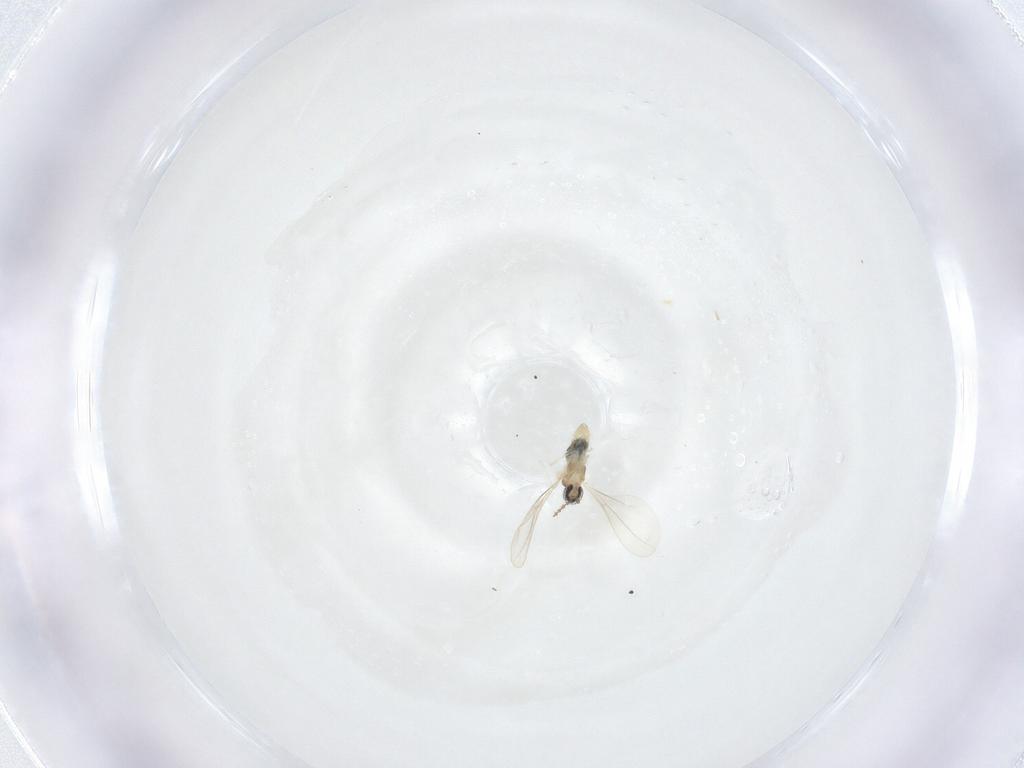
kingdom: Animalia
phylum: Arthropoda
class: Insecta
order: Diptera
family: Cecidomyiidae
